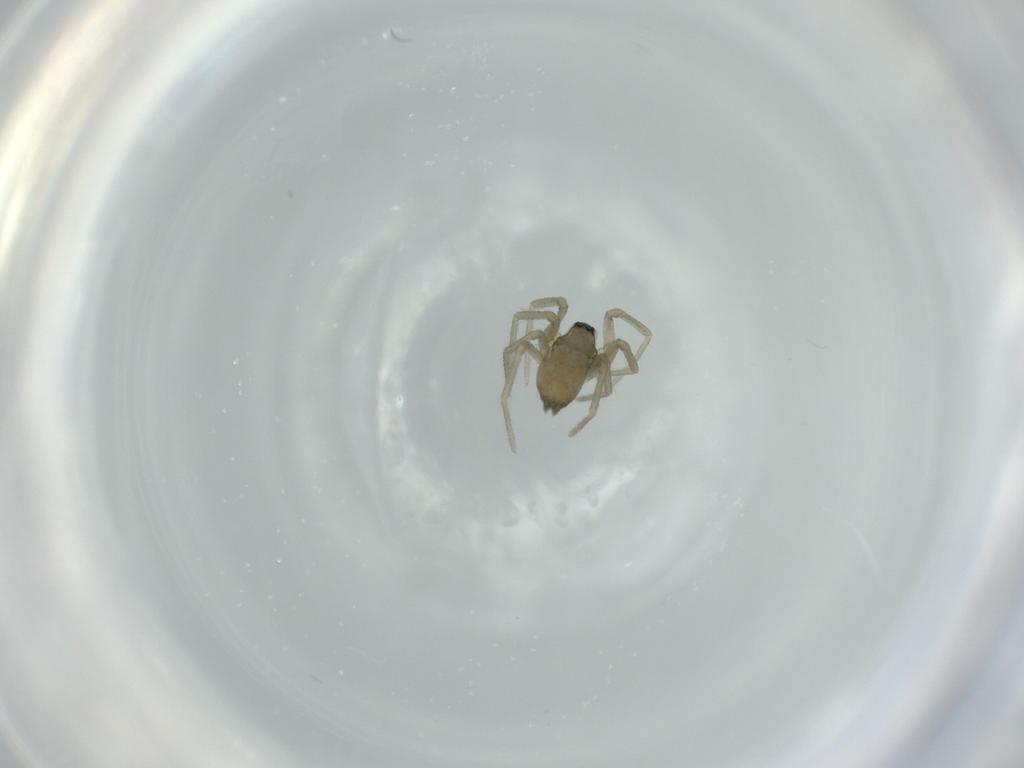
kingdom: Animalia
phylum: Arthropoda
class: Arachnida
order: Araneae
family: Linyphiidae
